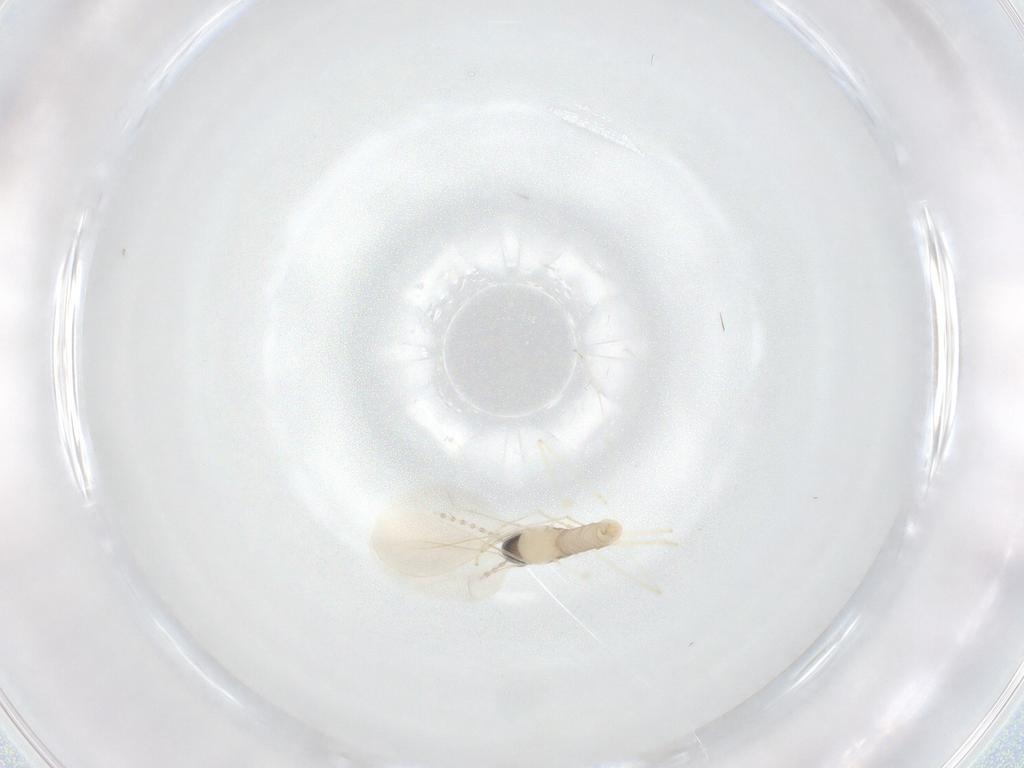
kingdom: Animalia
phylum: Arthropoda
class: Insecta
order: Diptera
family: Cecidomyiidae
